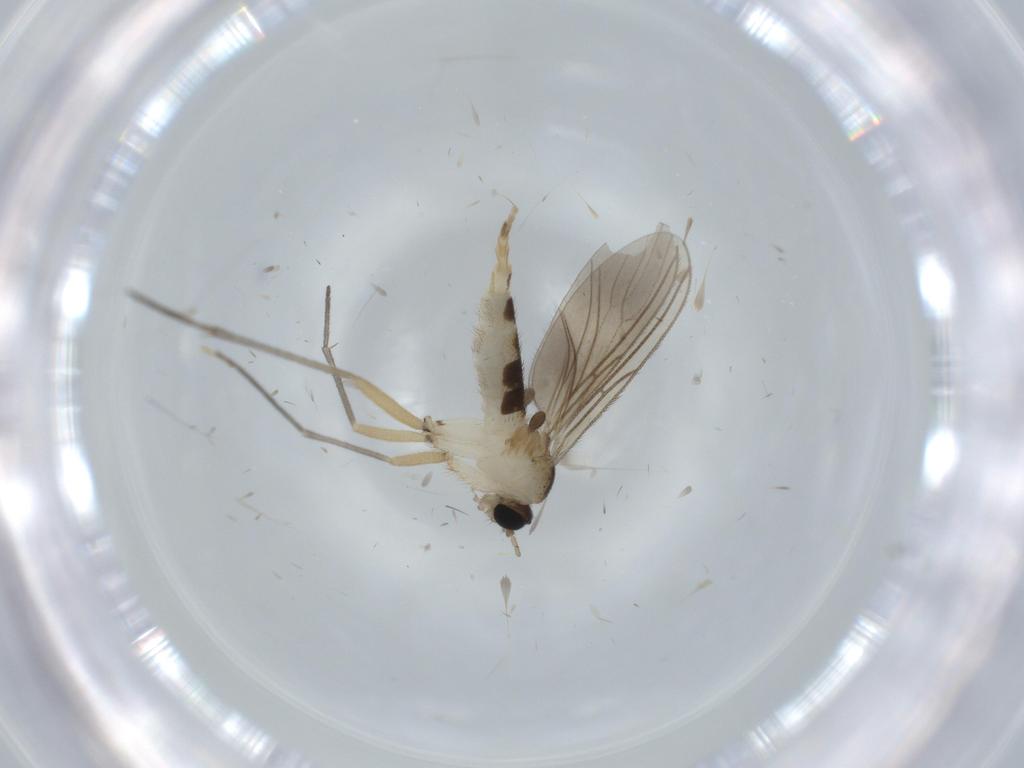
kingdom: Animalia
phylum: Arthropoda
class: Insecta
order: Diptera
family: Sciaridae
